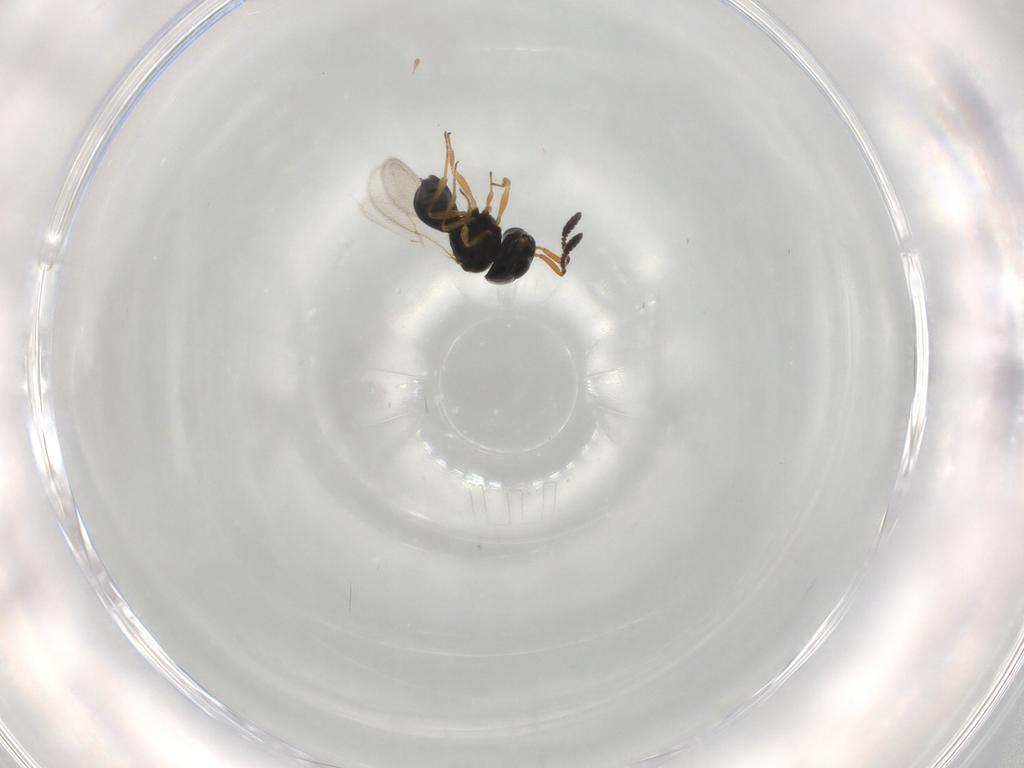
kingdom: Animalia
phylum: Arthropoda
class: Insecta
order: Hymenoptera
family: Scelionidae
